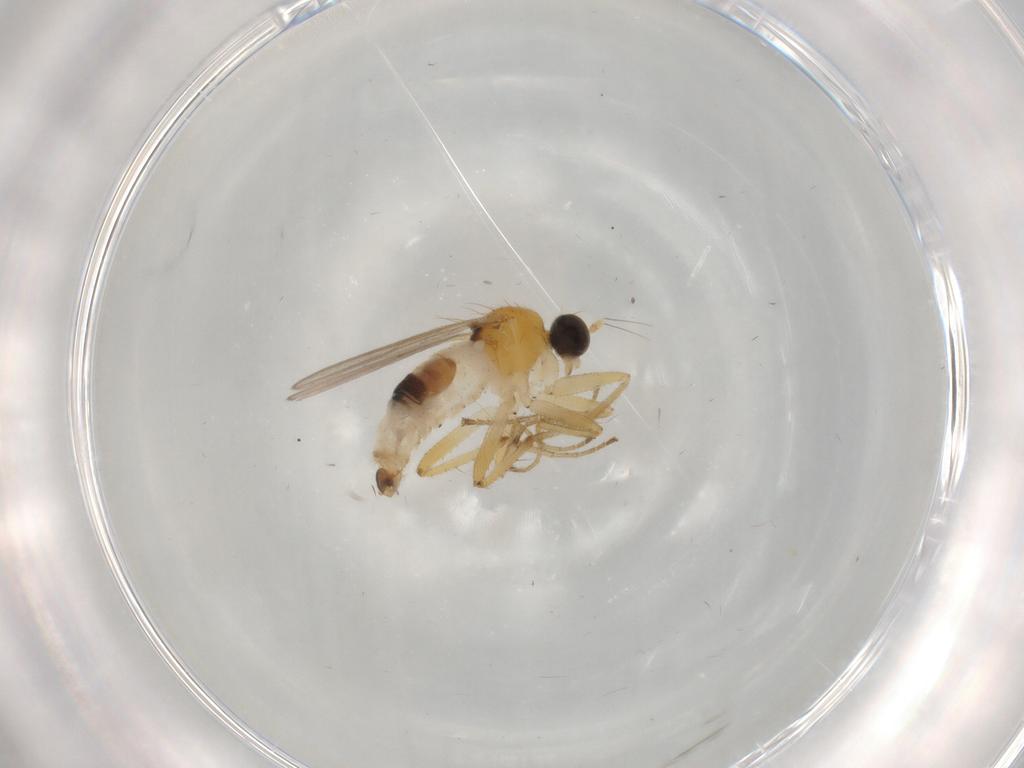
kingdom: Animalia
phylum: Arthropoda
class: Insecta
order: Diptera
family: Hybotidae
